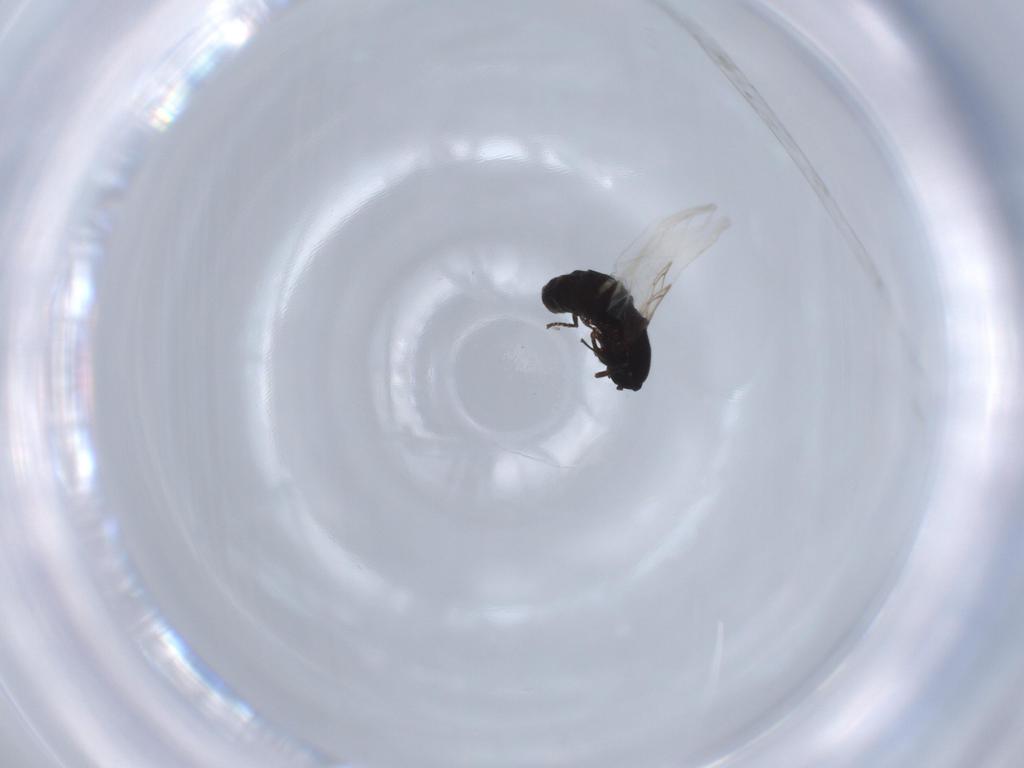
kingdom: Animalia
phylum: Arthropoda
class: Insecta
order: Diptera
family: Scatopsidae
